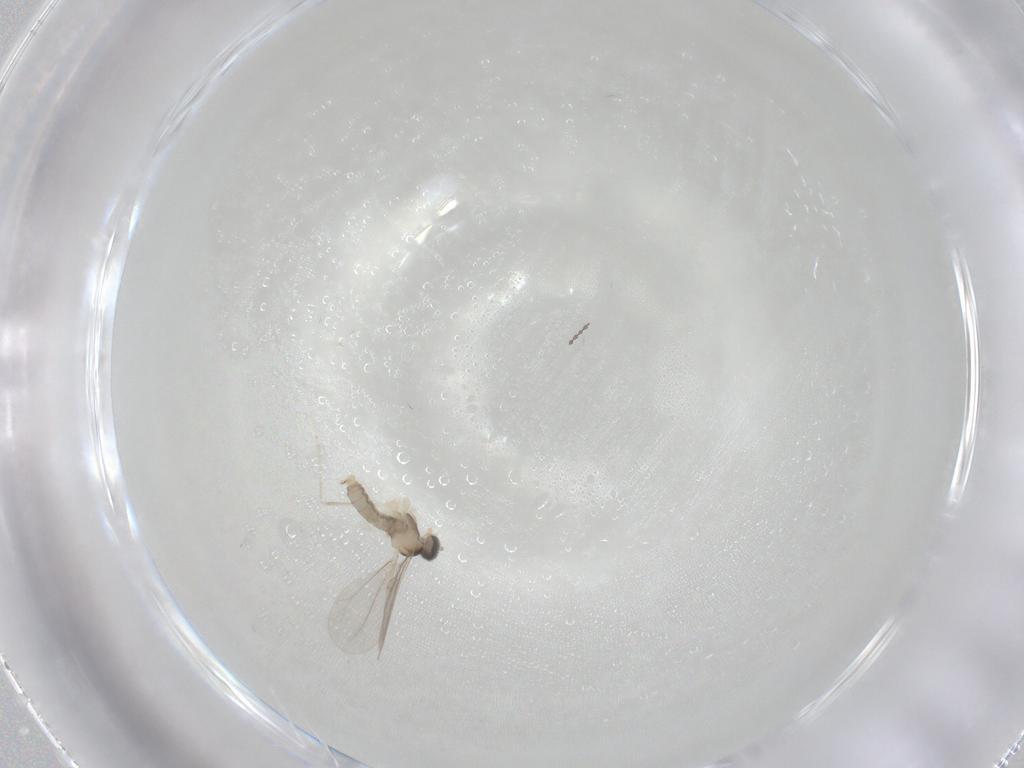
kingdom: Animalia
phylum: Arthropoda
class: Insecta
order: Diptera
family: Cecidomyiidae
